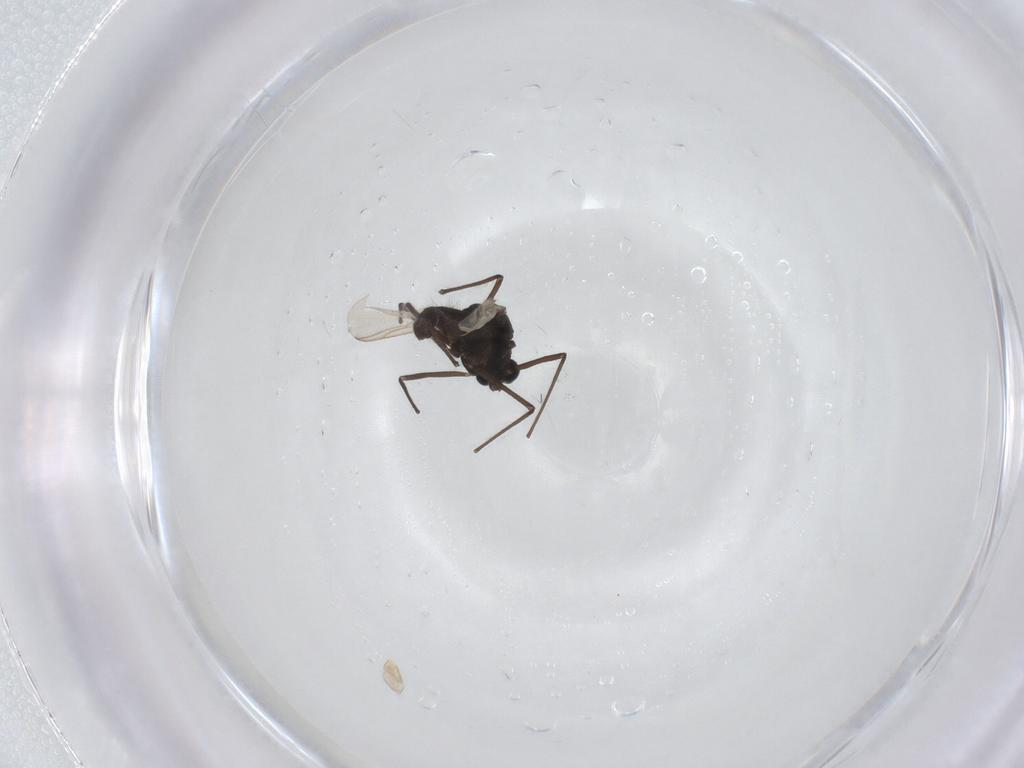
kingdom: Animalia
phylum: Arthropoda
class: Insecta
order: Diptera
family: Chironomidae
